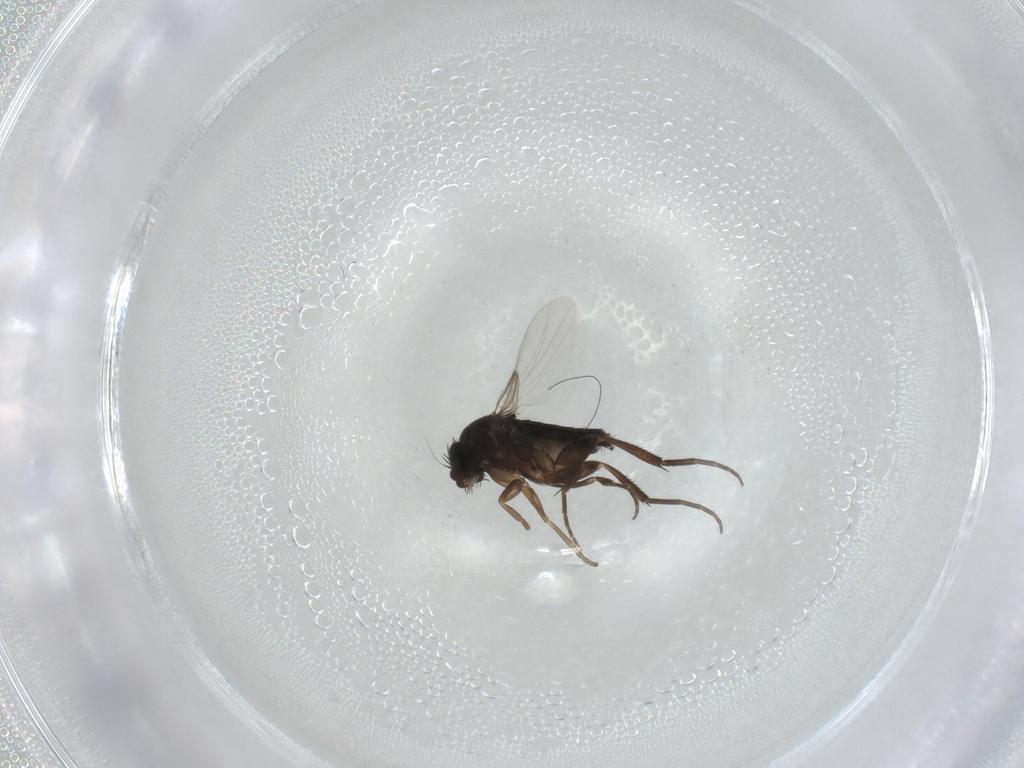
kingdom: Animalia
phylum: Arthropoda
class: Insecta
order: Diptera
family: Phoridae
